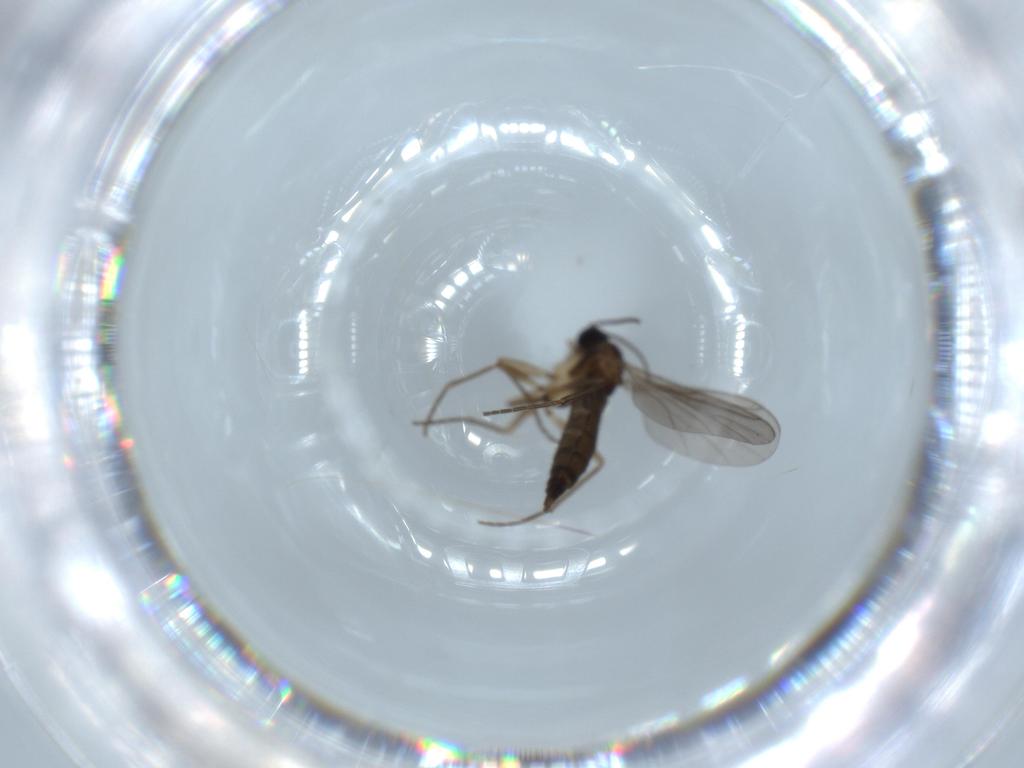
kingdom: Animalia
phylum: Arthropoda
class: Insecta
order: Diptera
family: Sciaridae
